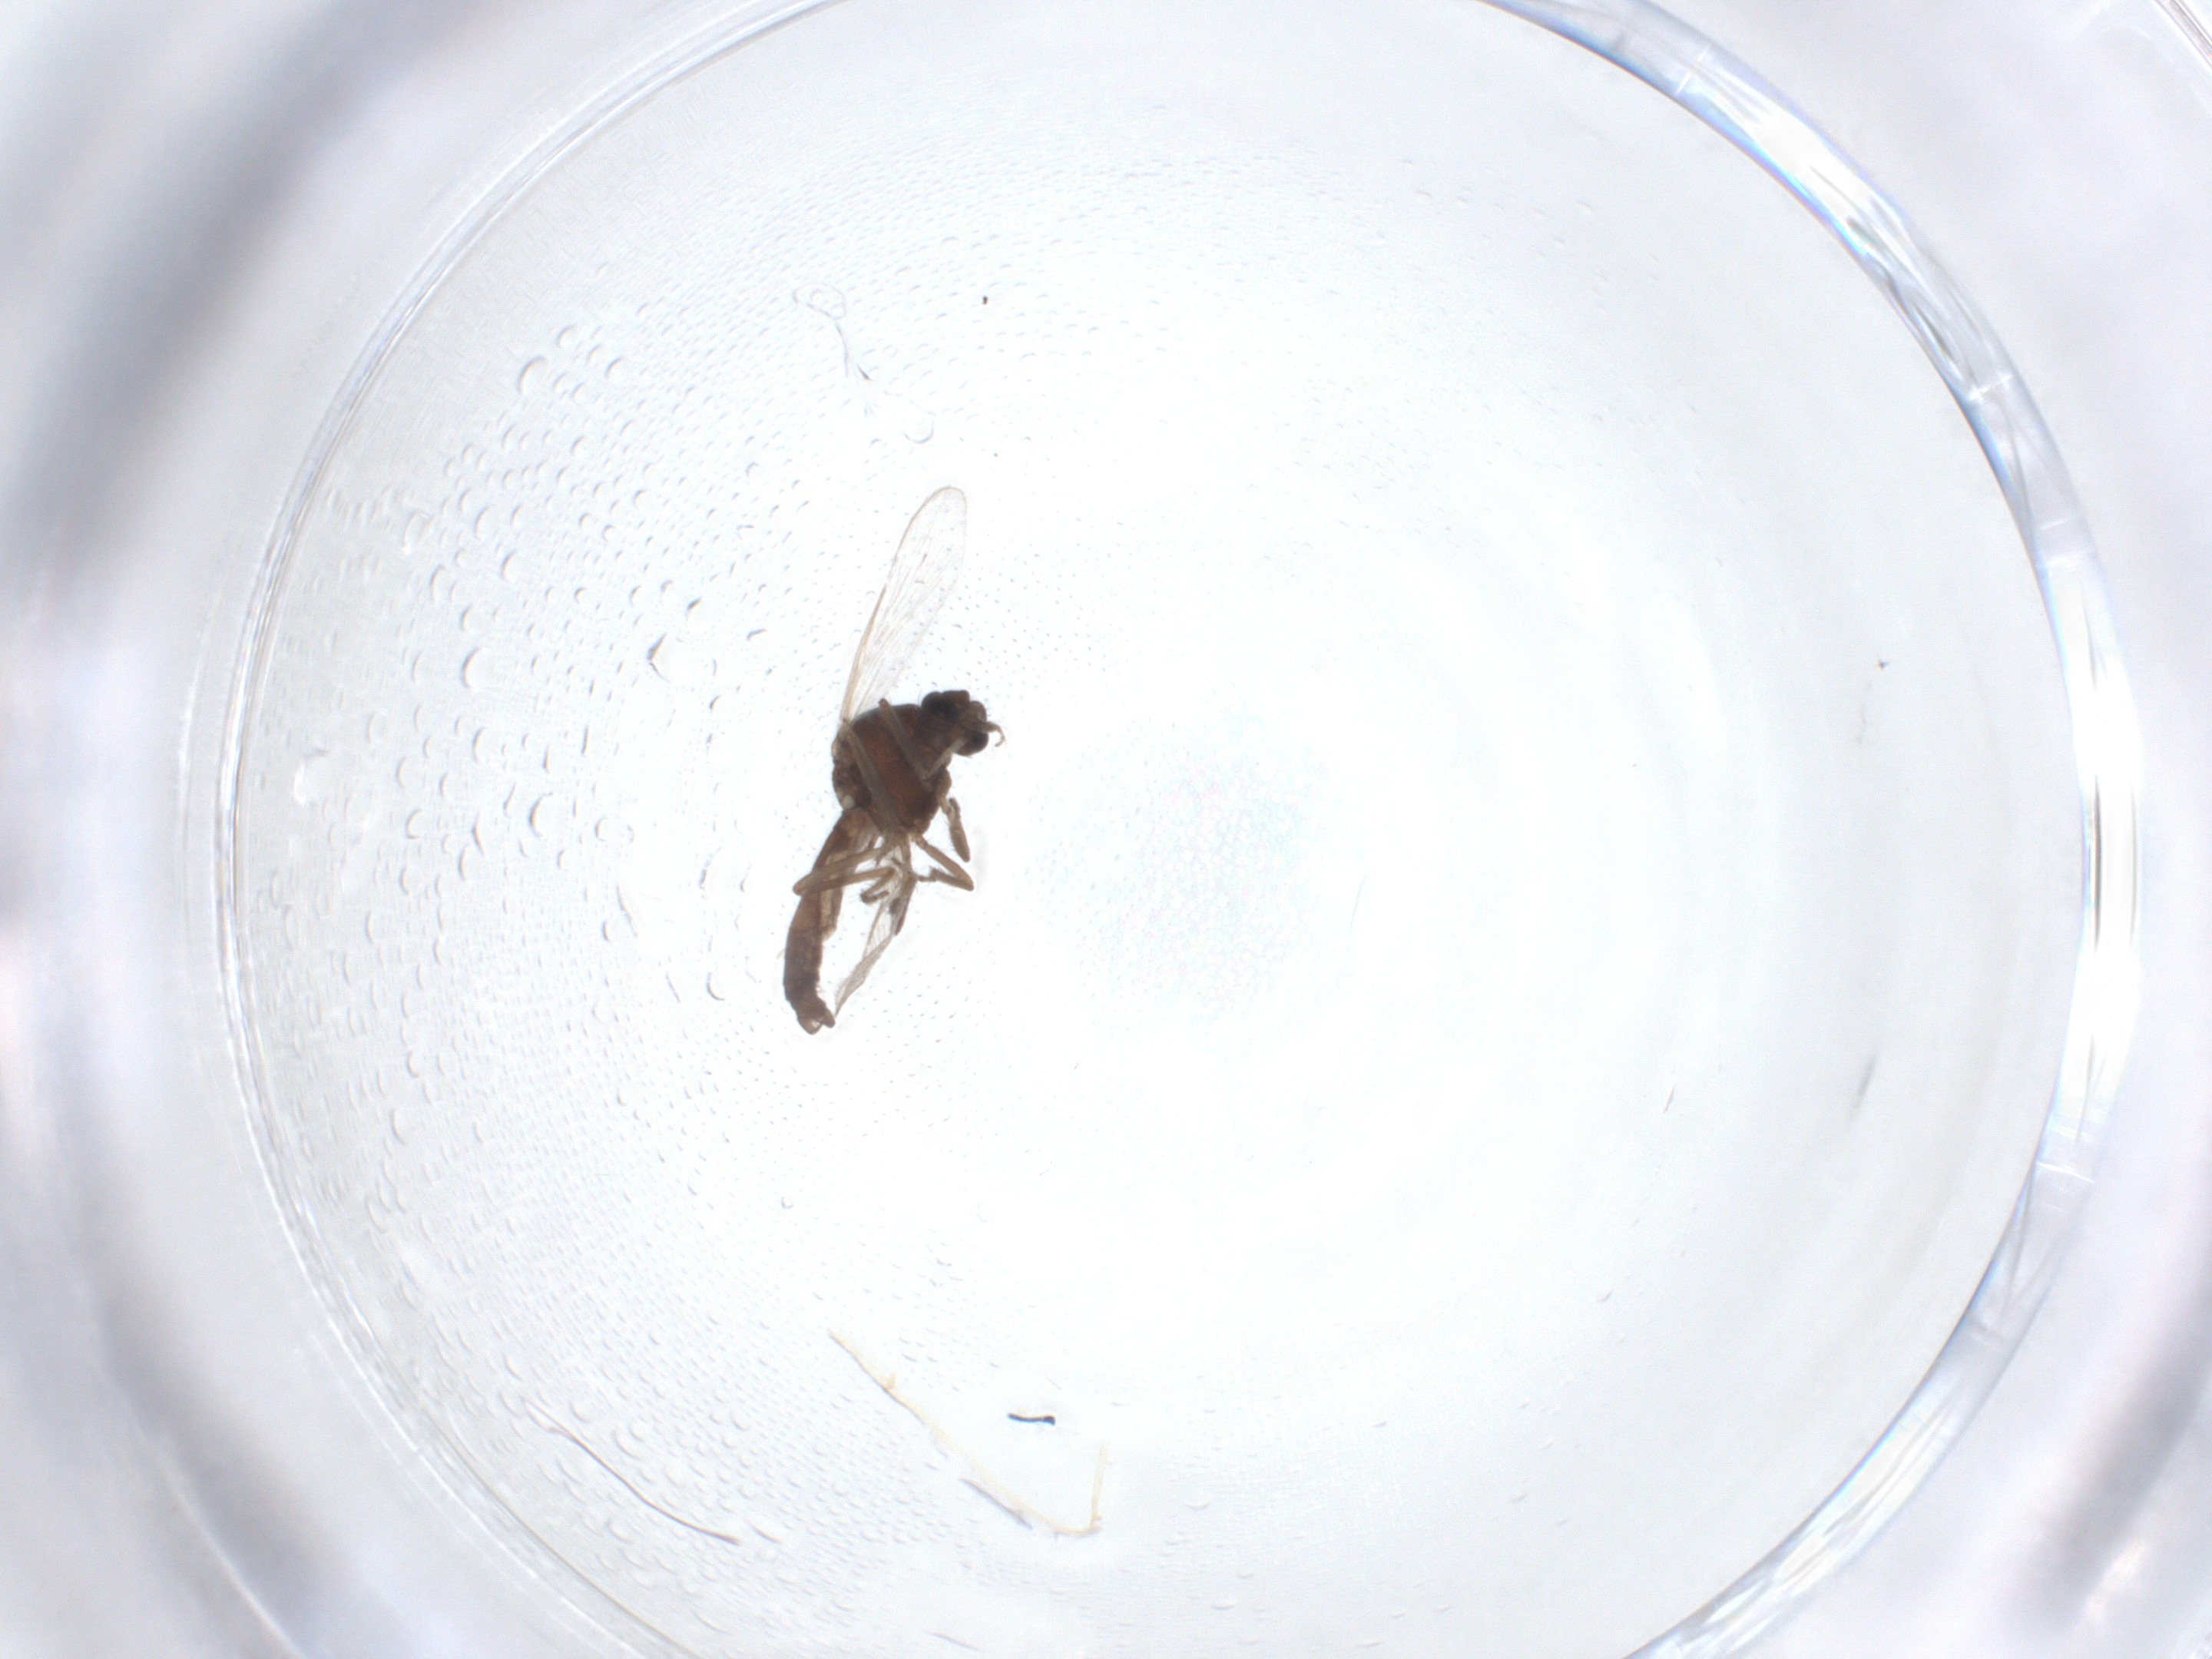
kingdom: Animalia
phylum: Arthropoda
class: Insecta
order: Diptera
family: Ceratopogonidae
